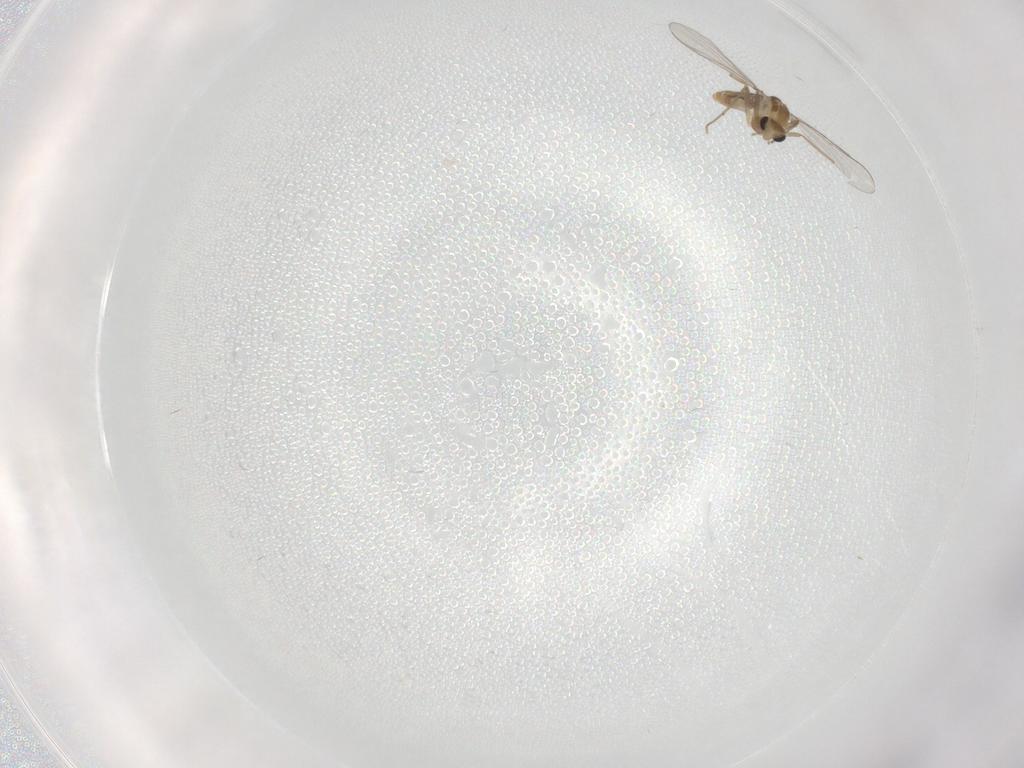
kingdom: Animalia
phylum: Arthropoda
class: Insecta
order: Diptera
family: Chironomidae
